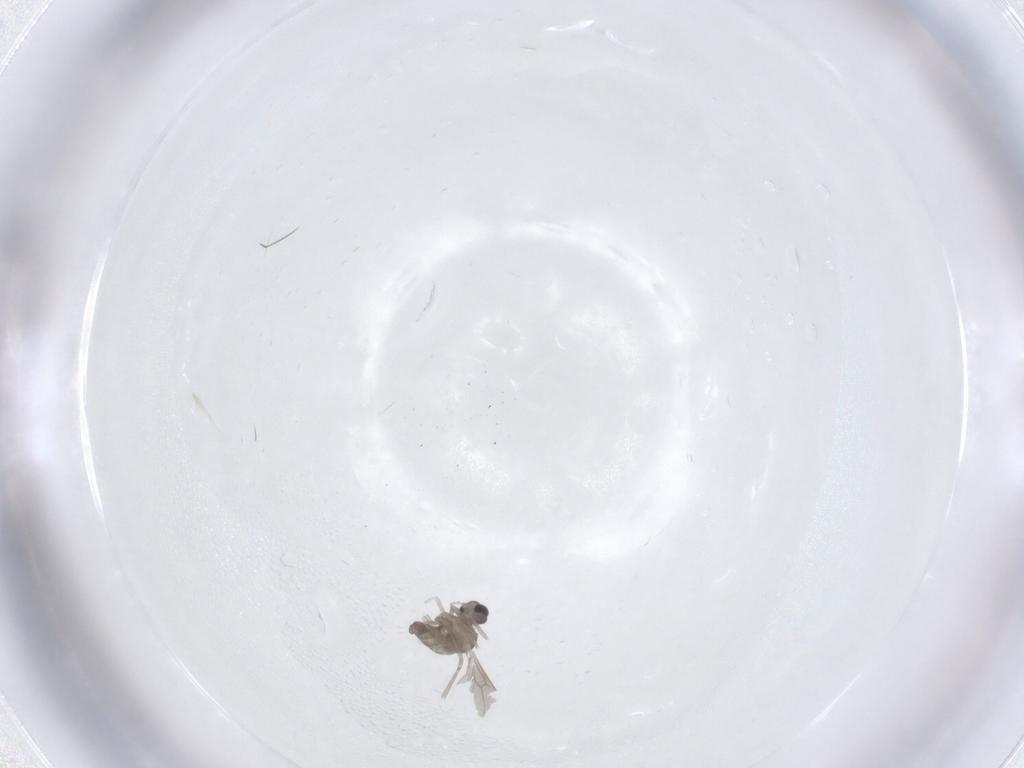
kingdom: Animalia
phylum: Arthropoda
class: Insecta
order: Diptera
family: Cecidomyiidae
